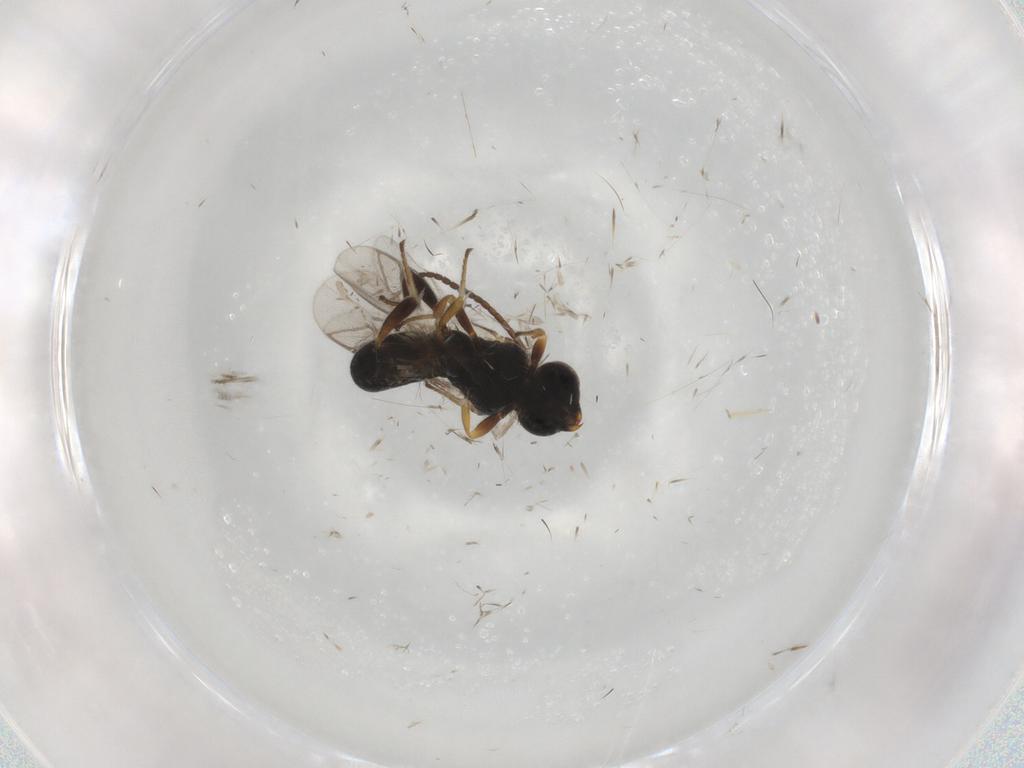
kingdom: Animalia
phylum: Arthropoda
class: Insecta
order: Hymenoptera
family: Braconidae
